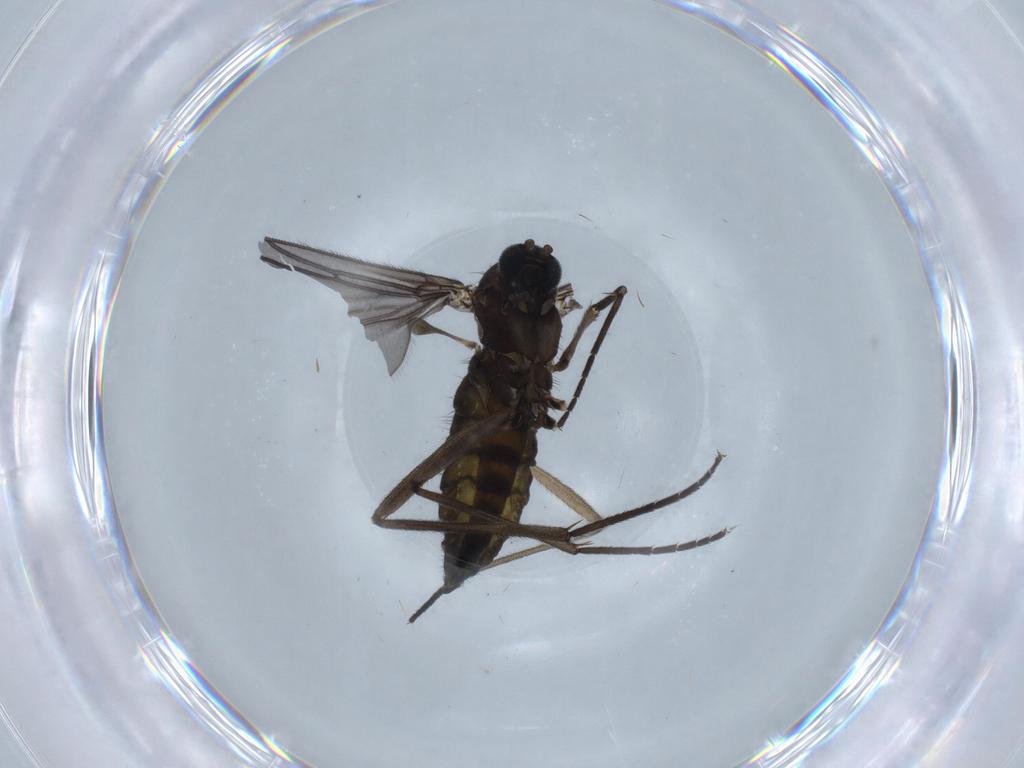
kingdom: Animalia
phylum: Arthropoda
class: Insecta
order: Diptera
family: Sciaridae
